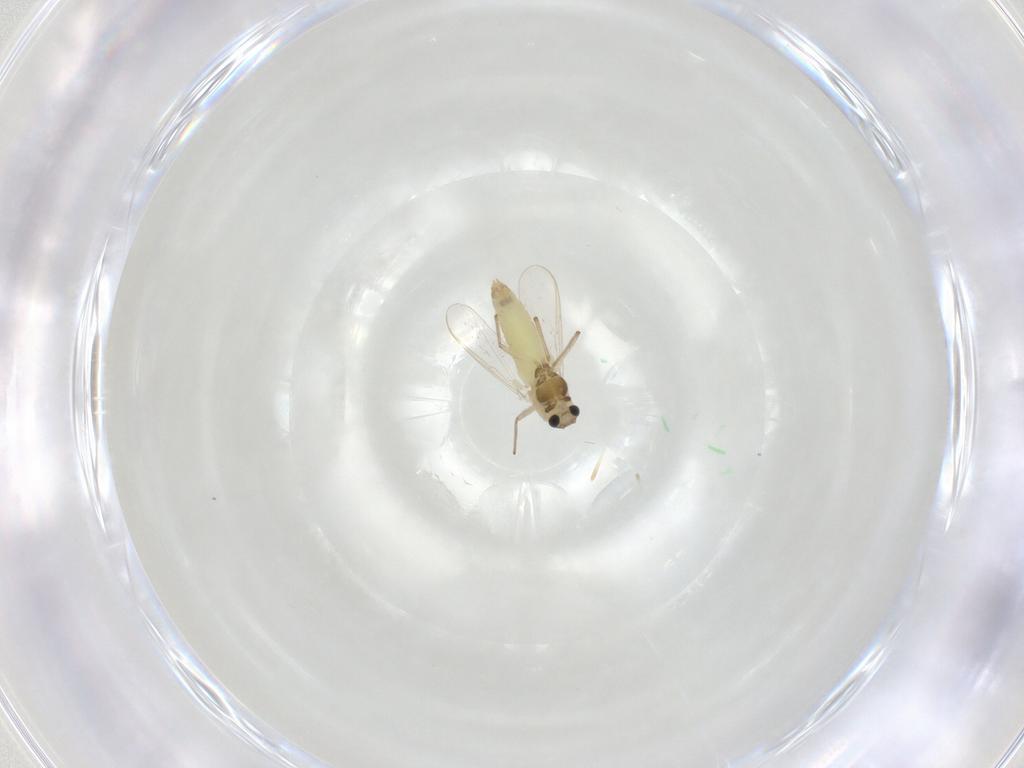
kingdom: Animalia
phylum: Arthropoda
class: Insecta
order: Diptera
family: Chironomidae
